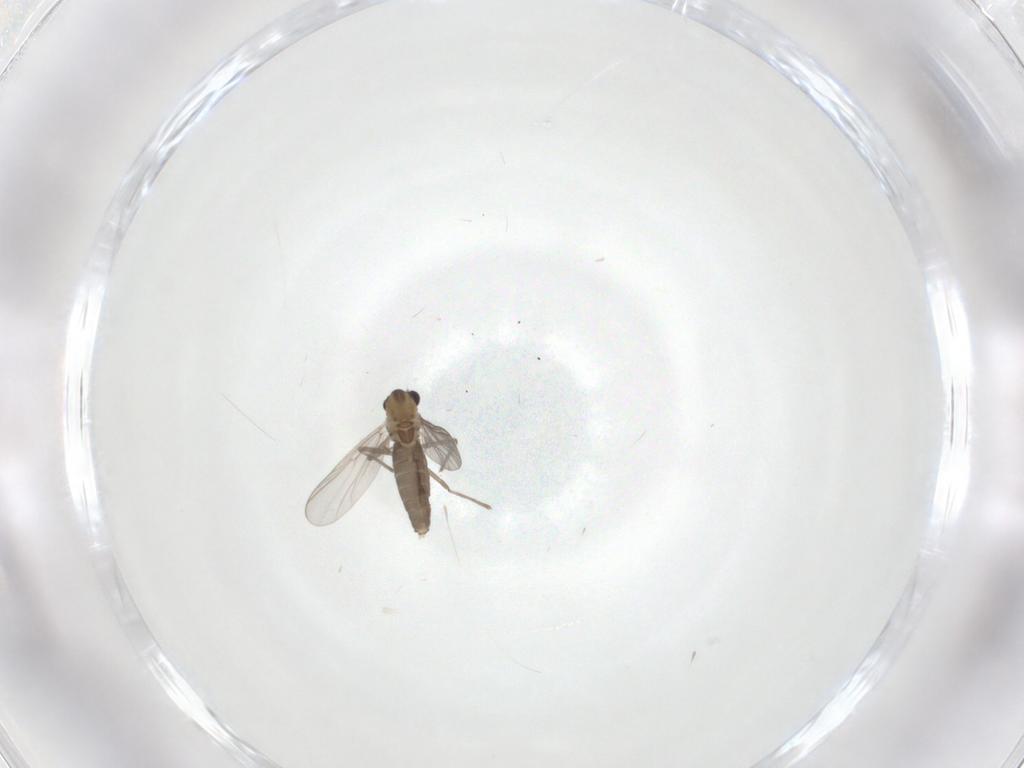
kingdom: Animalia
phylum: Arthropoda
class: Insecta
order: Diptera
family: Chironomidae
